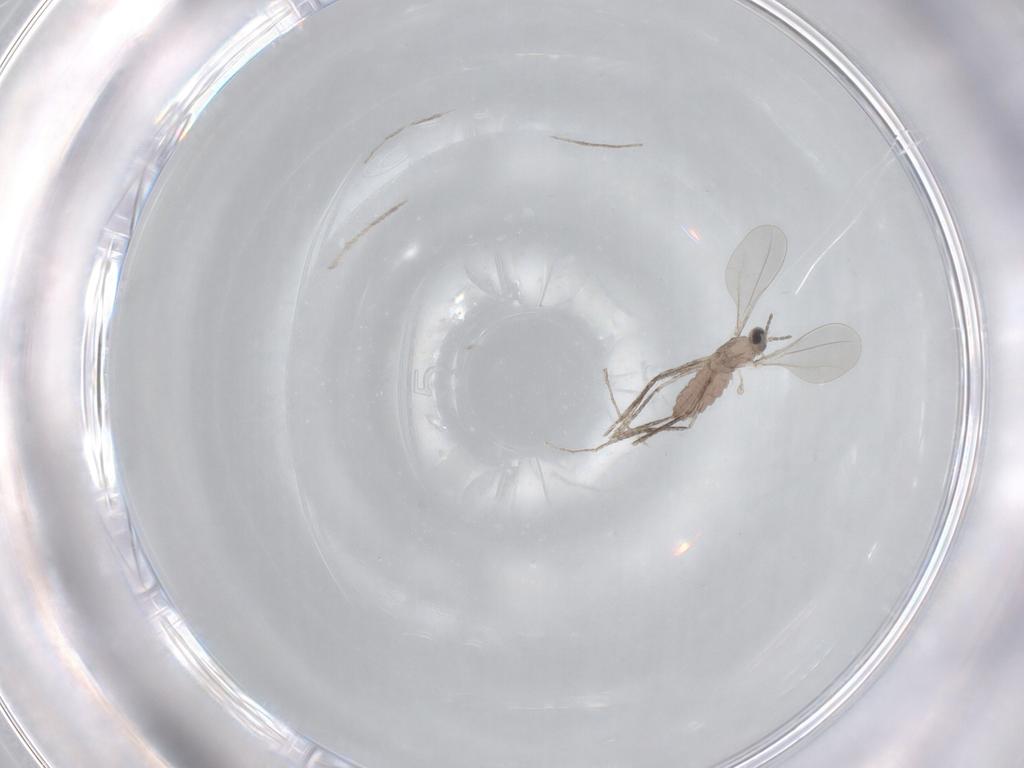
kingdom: Animalia
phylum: Arthropoda
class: Insecta
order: Diptera
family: Cecidomyiidae
